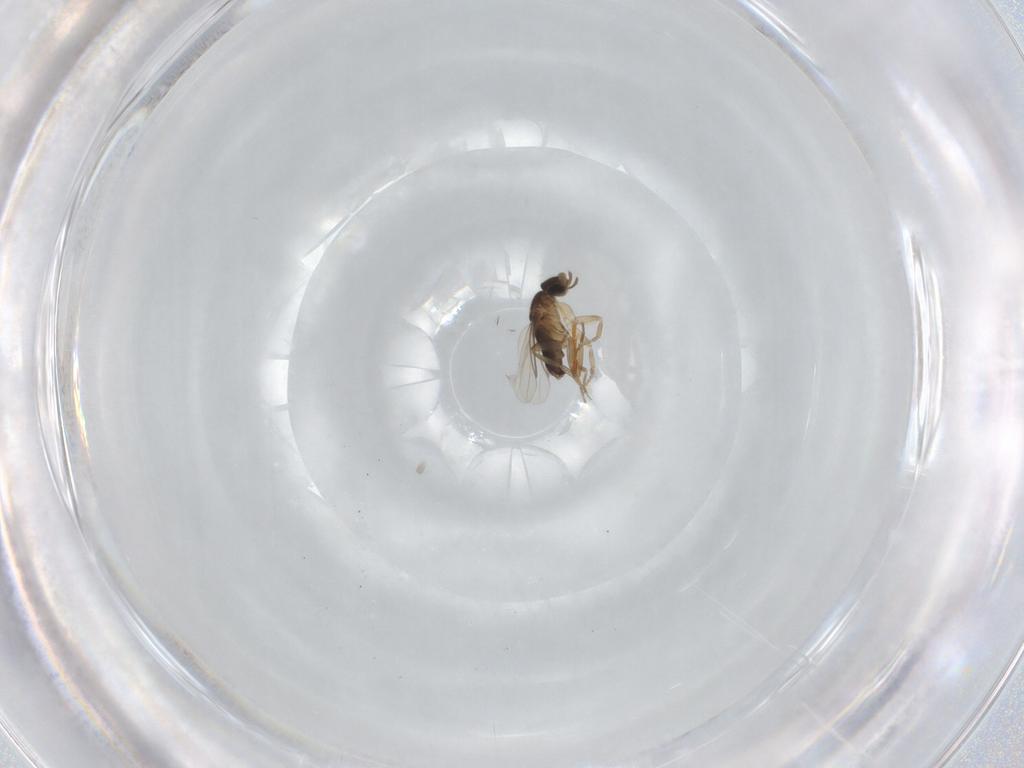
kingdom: Animalia
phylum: Arthropoda
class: Insecta
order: Diptera
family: Phoridae
